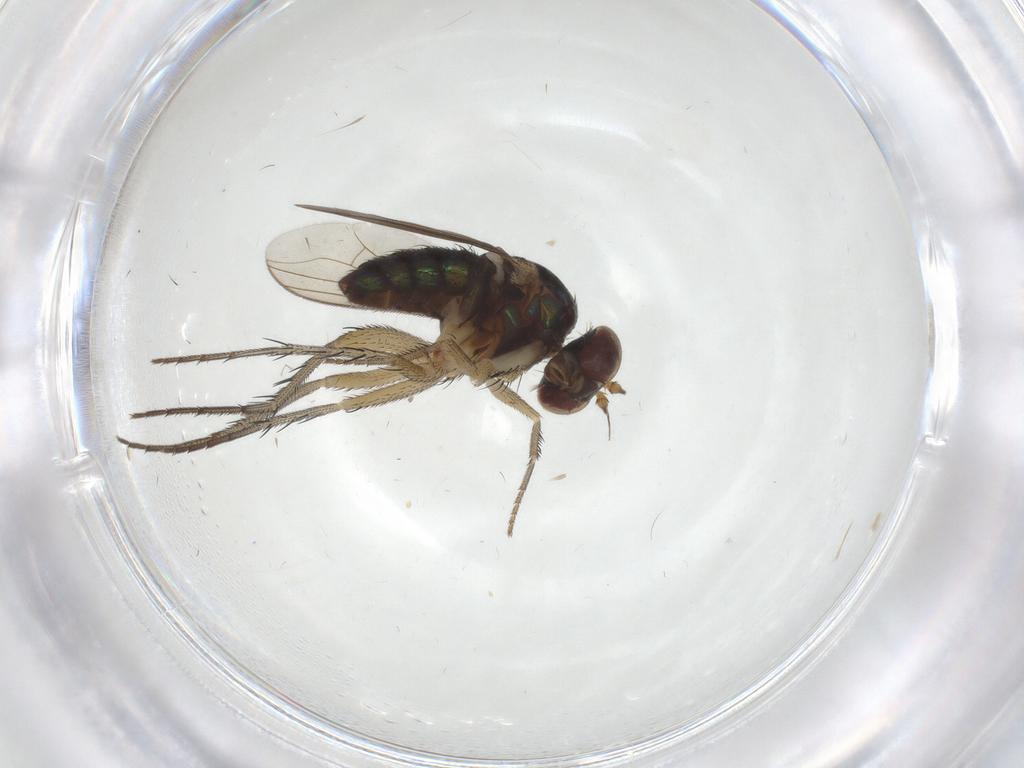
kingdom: Animalia
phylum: Arthropoda
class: Insecta
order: Diptera
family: Dolichopodidae
